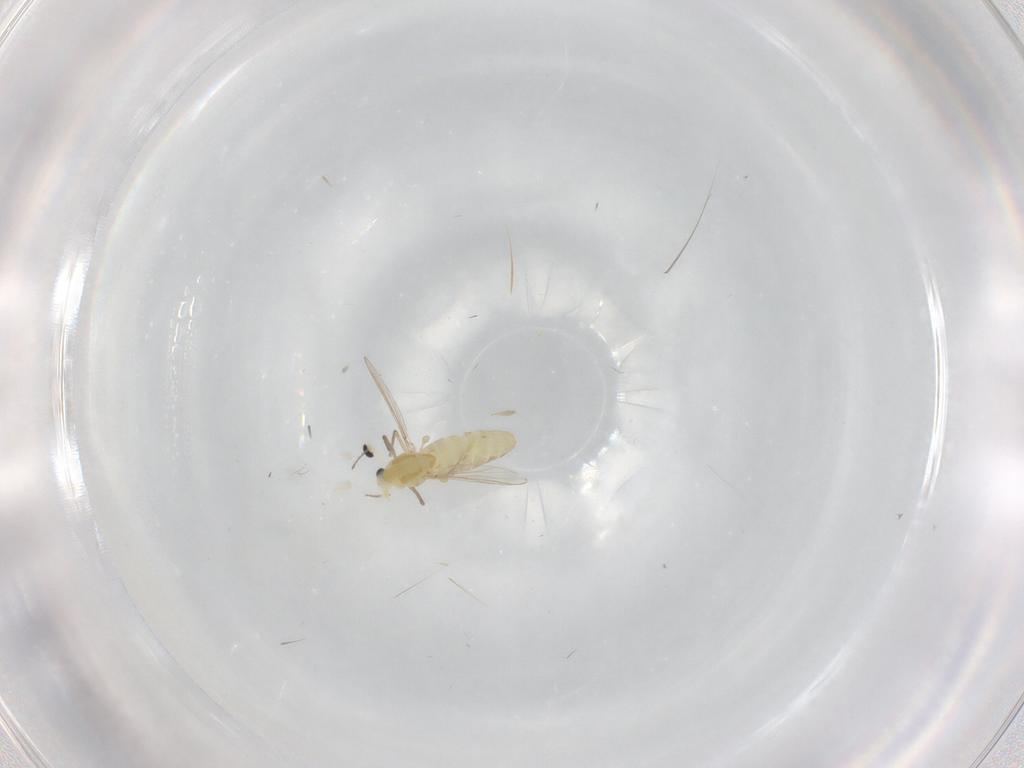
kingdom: Animalia
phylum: Arthropoda
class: Insecta
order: Diptera
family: Chironomidae
